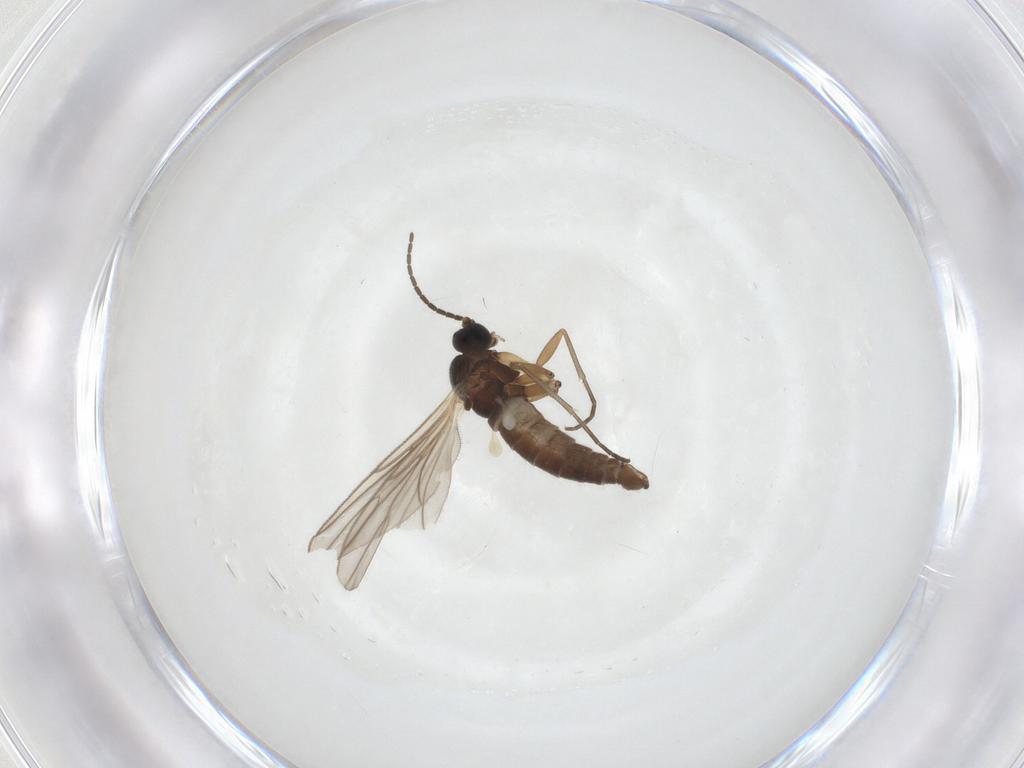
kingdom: Animalia
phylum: Arthropoda
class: Insecta
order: Diptera
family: Sciaridae
